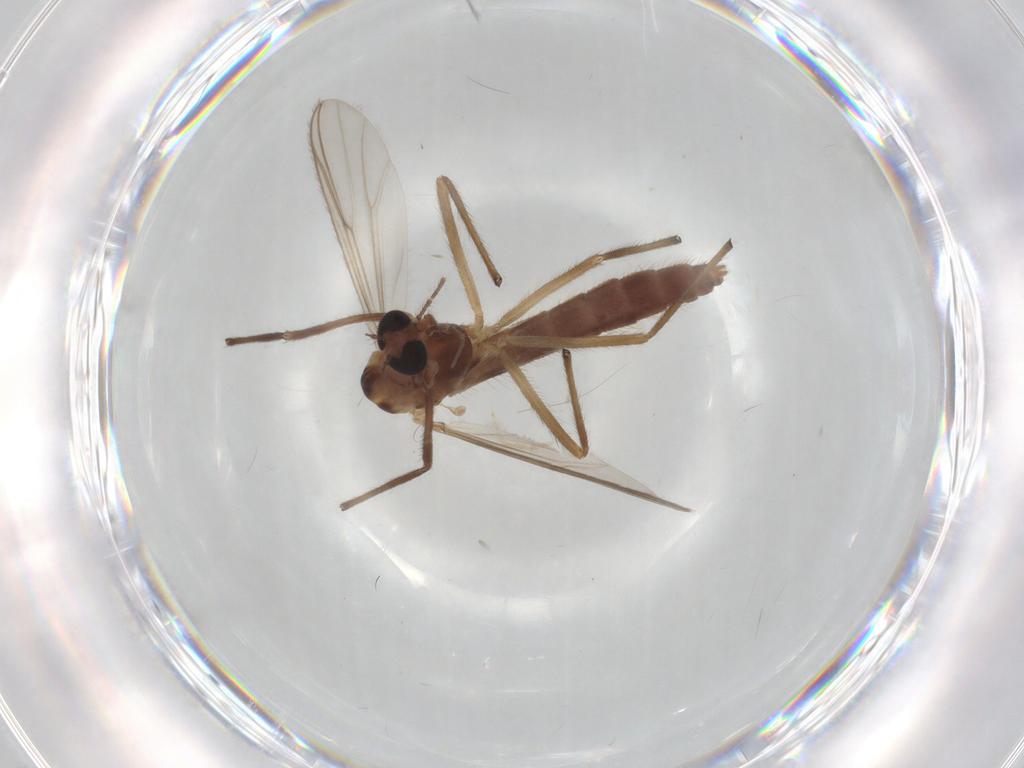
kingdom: Animalia
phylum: Arthropoda
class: Insecta
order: Diptera
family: Chironomidae
